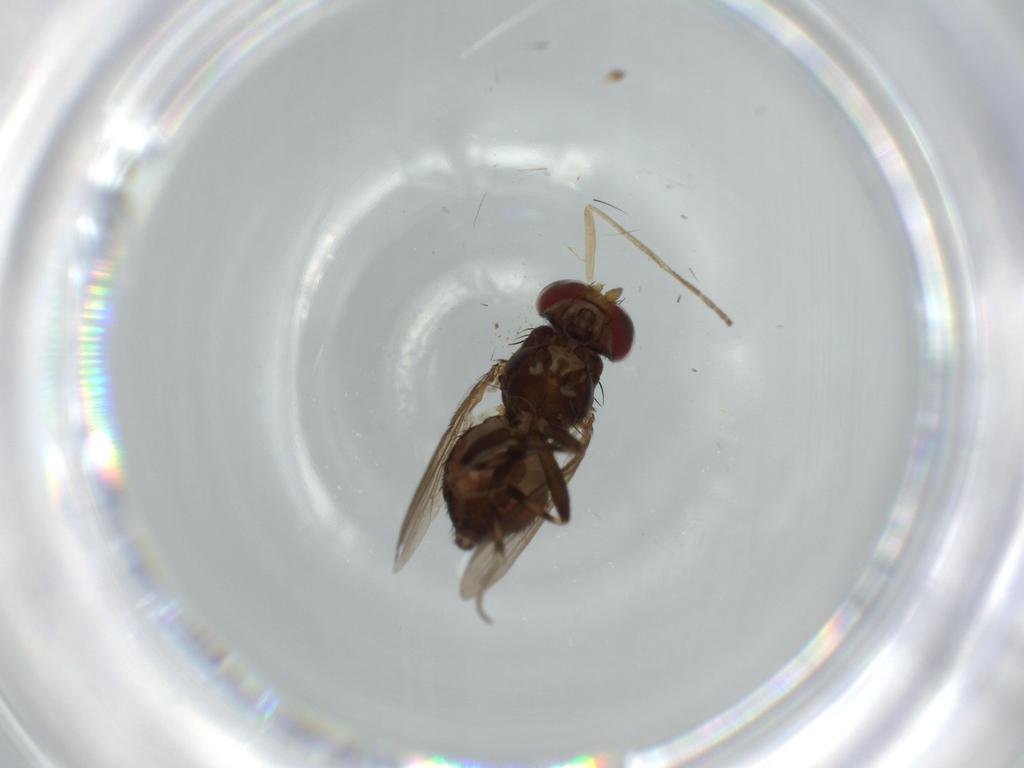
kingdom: Animalia
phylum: Arthropoda
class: Insecta
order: Diptera
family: Heleomyzidae
